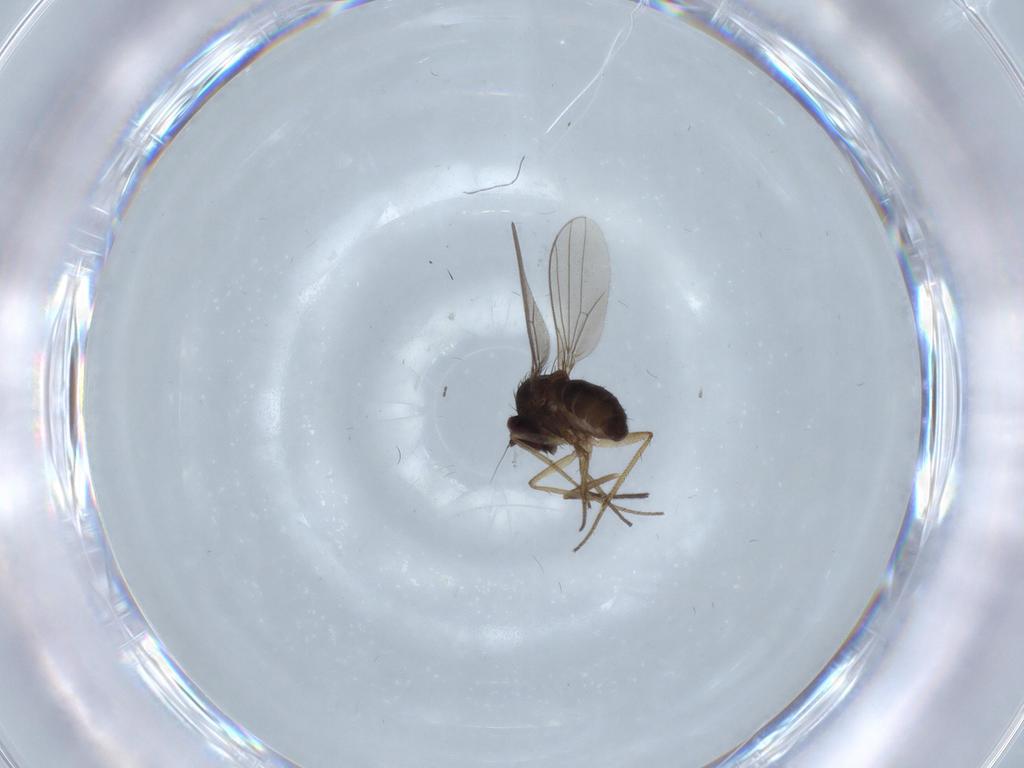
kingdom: Animalia
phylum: Arthropoda
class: Insecta
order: Diptera
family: Dolichopodidae
